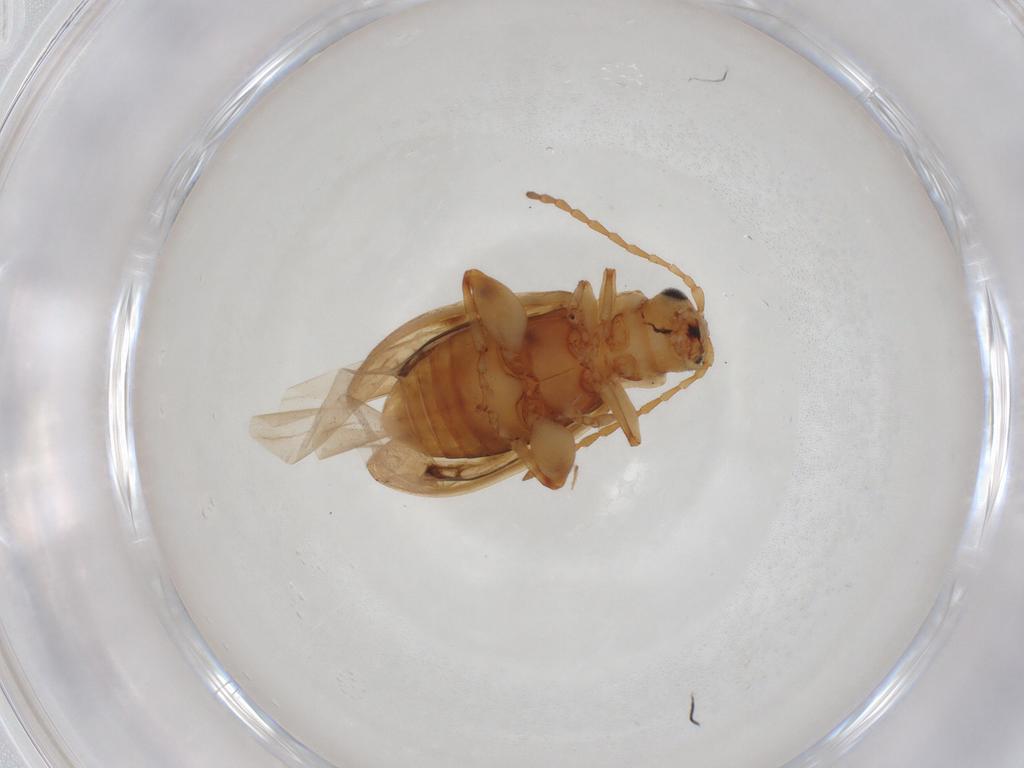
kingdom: Animalia
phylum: Arthropoda
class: Insecta
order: Coleoptera
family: Chrysomelidae
